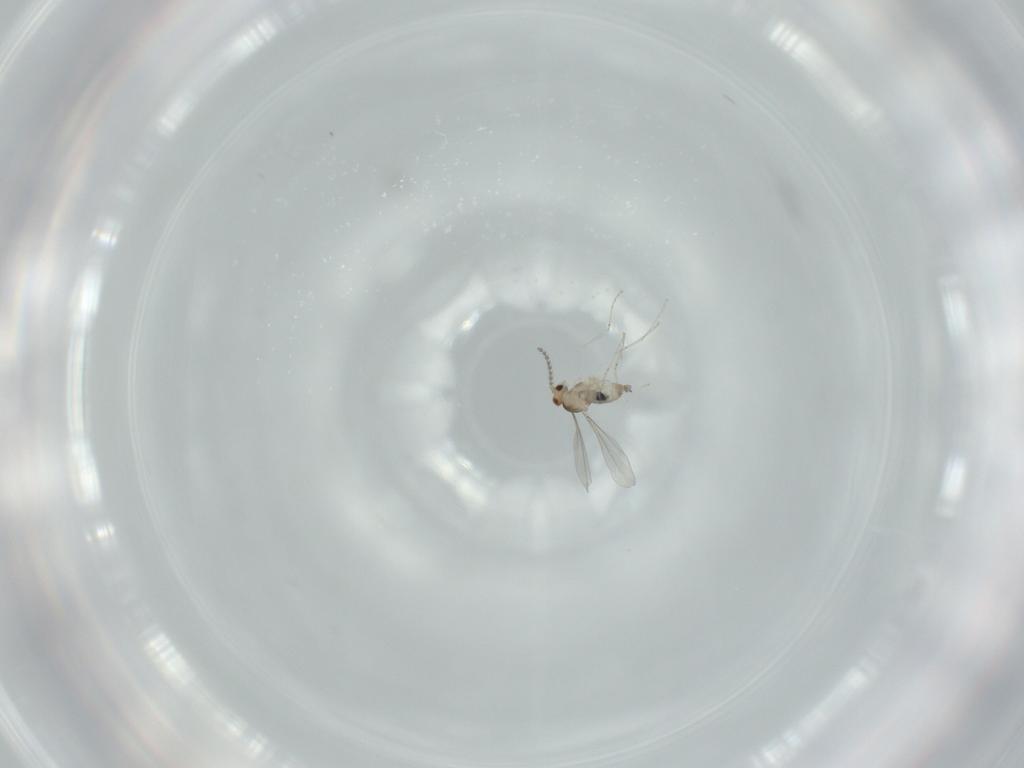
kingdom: Animalia
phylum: Arthropoda
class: Insecta
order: Diptera
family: Cecidomyiidae
